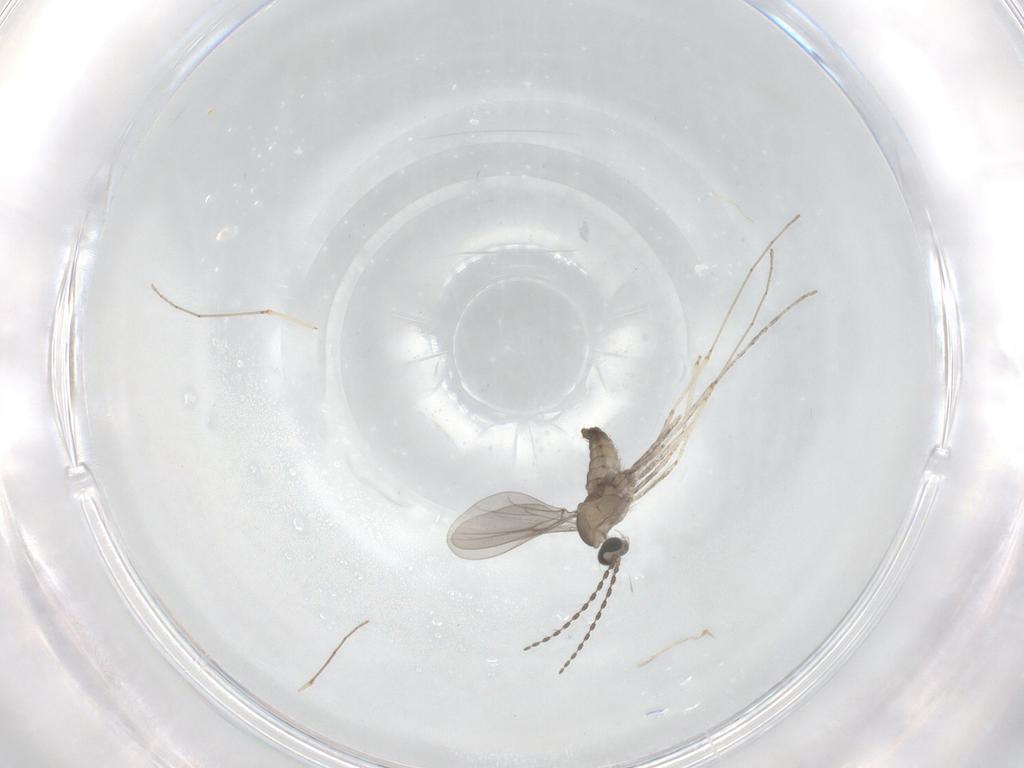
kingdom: Animalia
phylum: Arthropoda
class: Insecta
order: Diptera
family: Cecidomyiidae
